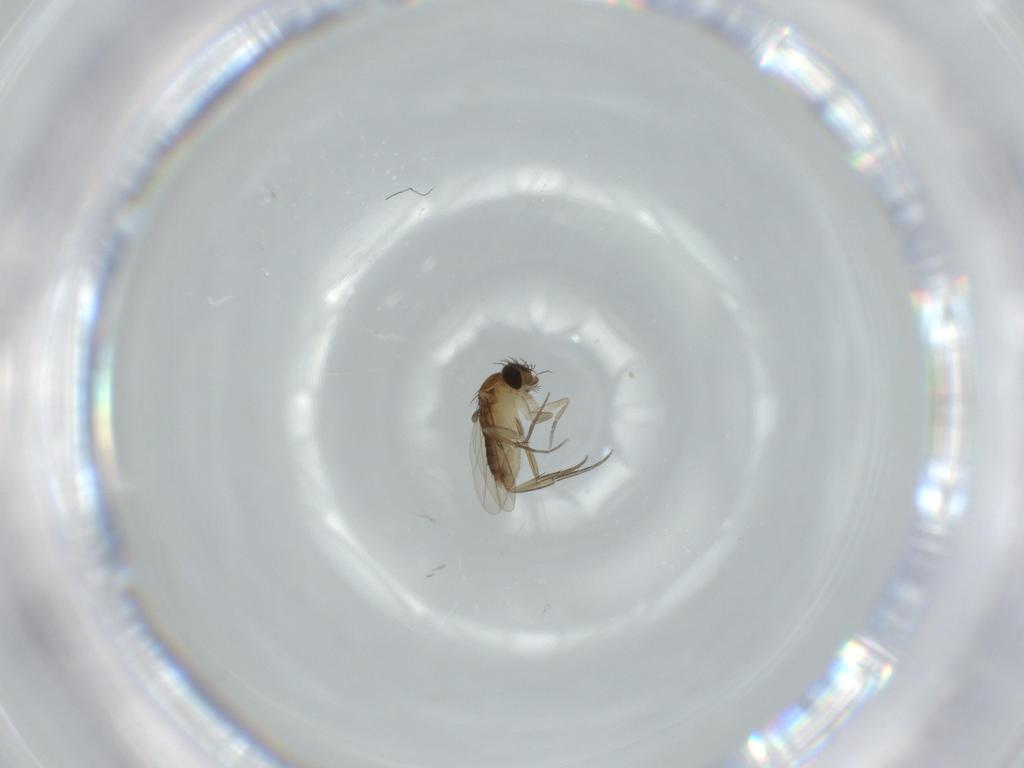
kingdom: Animalia
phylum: Arthropoda
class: Insecta
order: Diptera
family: Phoridae
